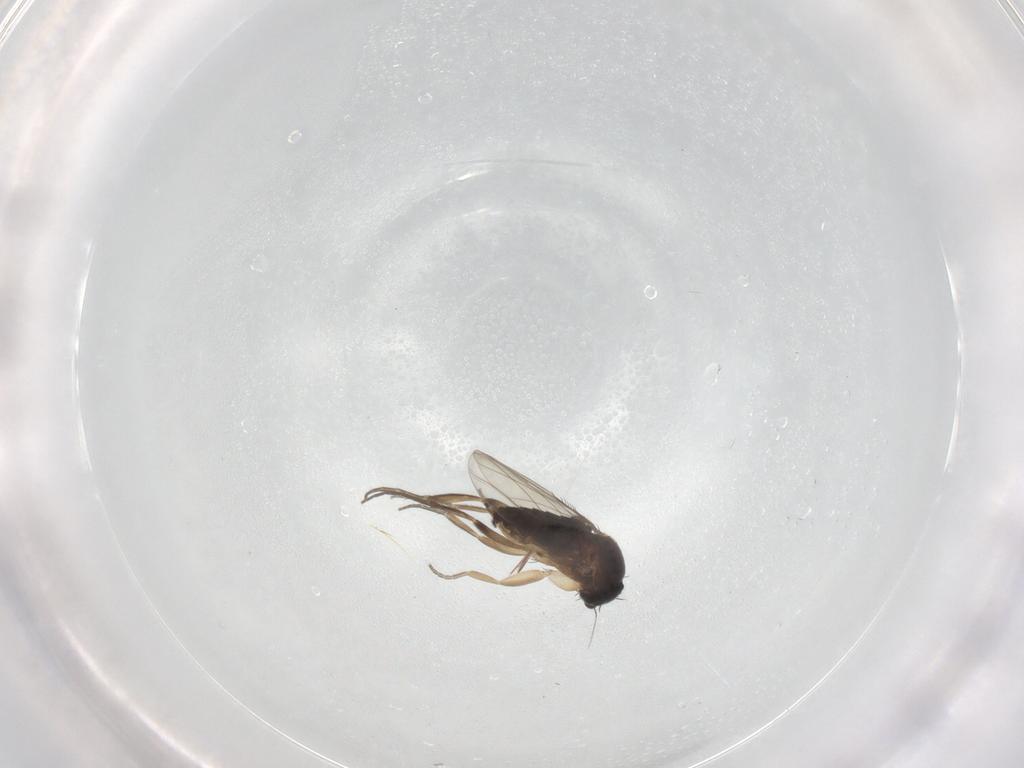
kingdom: Animalia
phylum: Arthropoda
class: Insecta
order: Diptera
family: Phoridae
